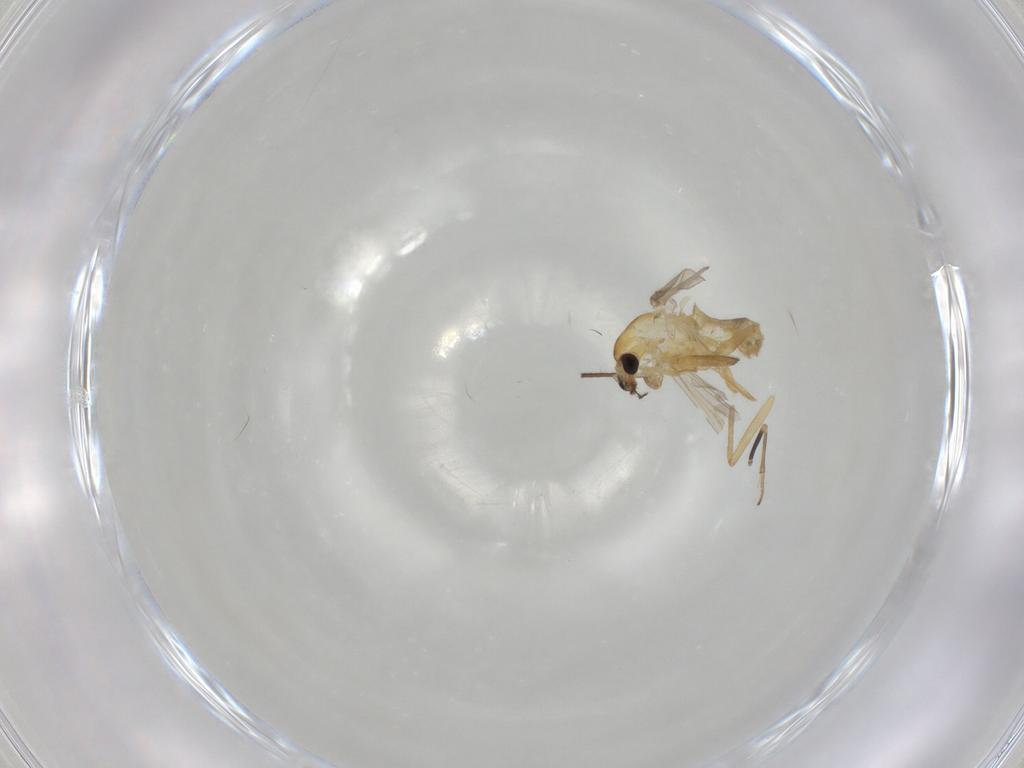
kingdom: Animalia
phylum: Arthropoda
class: Insecta
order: Diptera
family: Chironomidae
